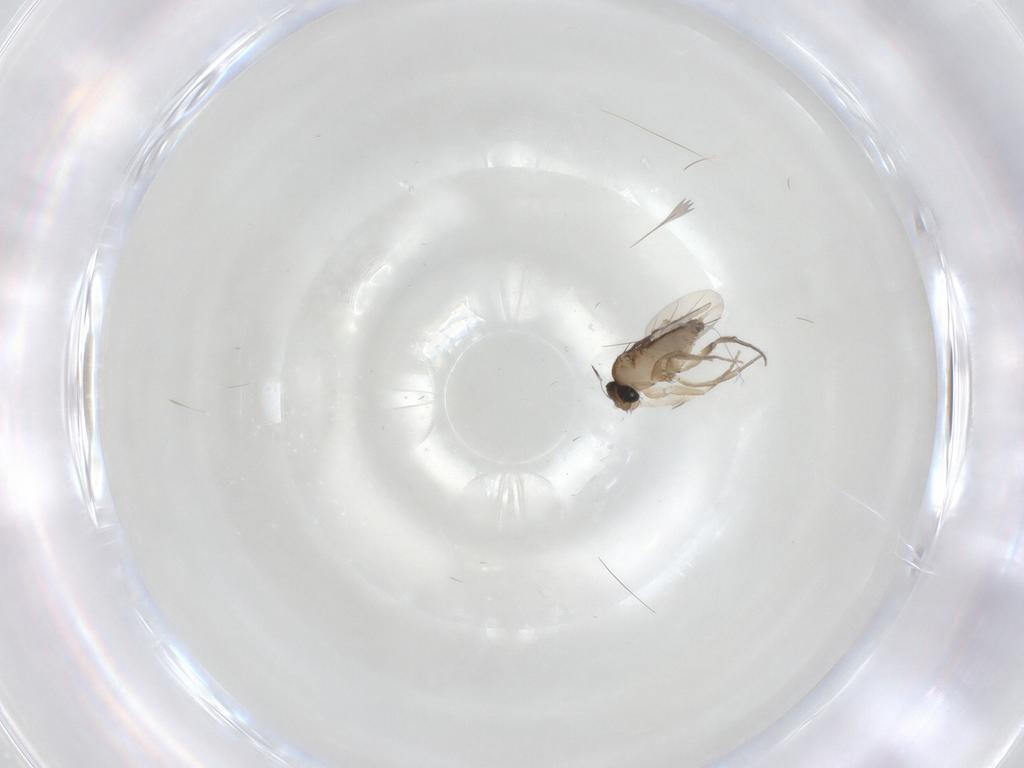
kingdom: Animalia
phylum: Arthropoda
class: Insecta
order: Diptera
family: Phoridae
